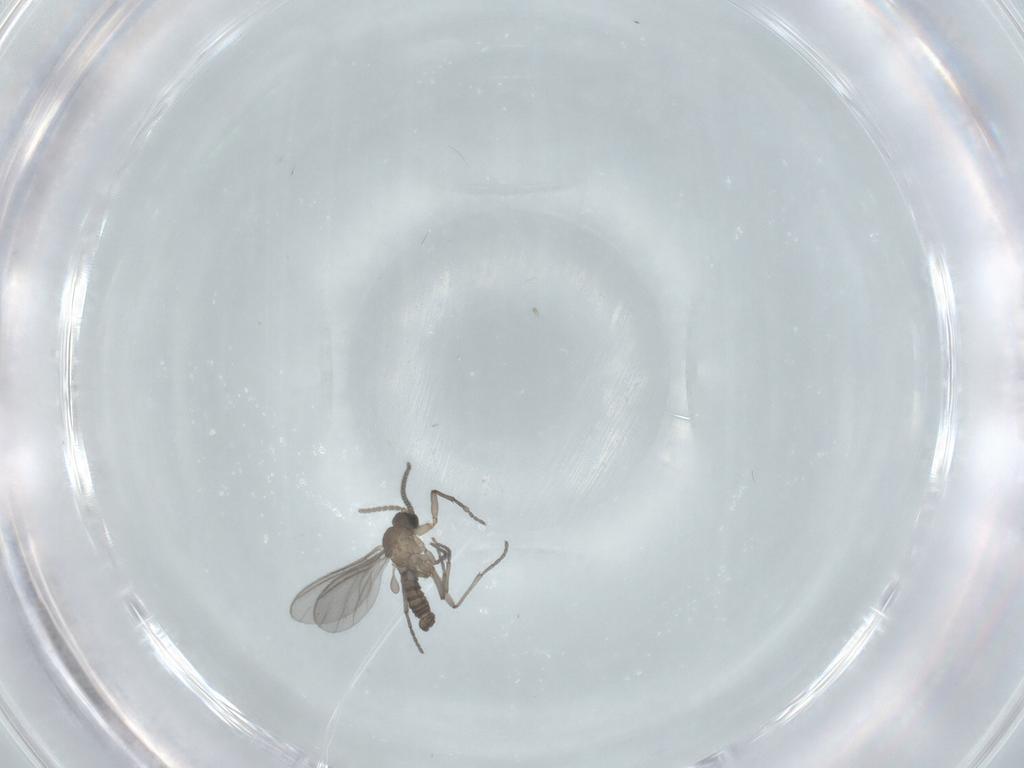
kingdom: Animalia
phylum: Arthropoda
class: Insecta
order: Diptera
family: Sciaridae
